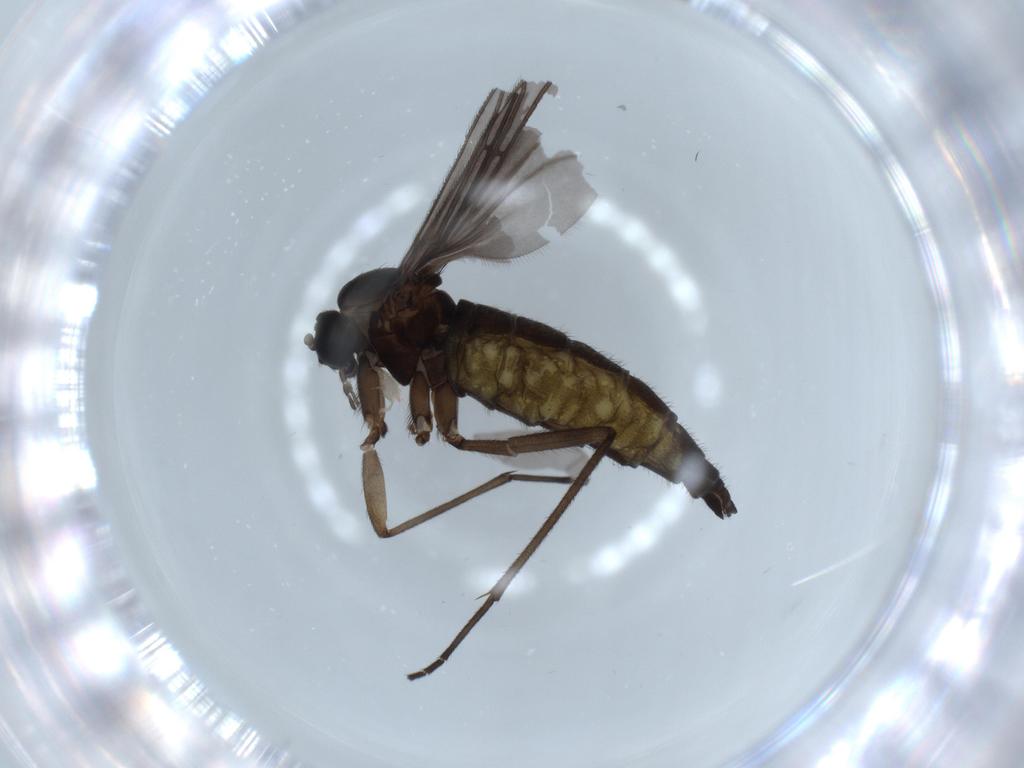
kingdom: Animalia
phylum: Arthropoda
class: Insecta
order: Diptera
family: Sciaridae
